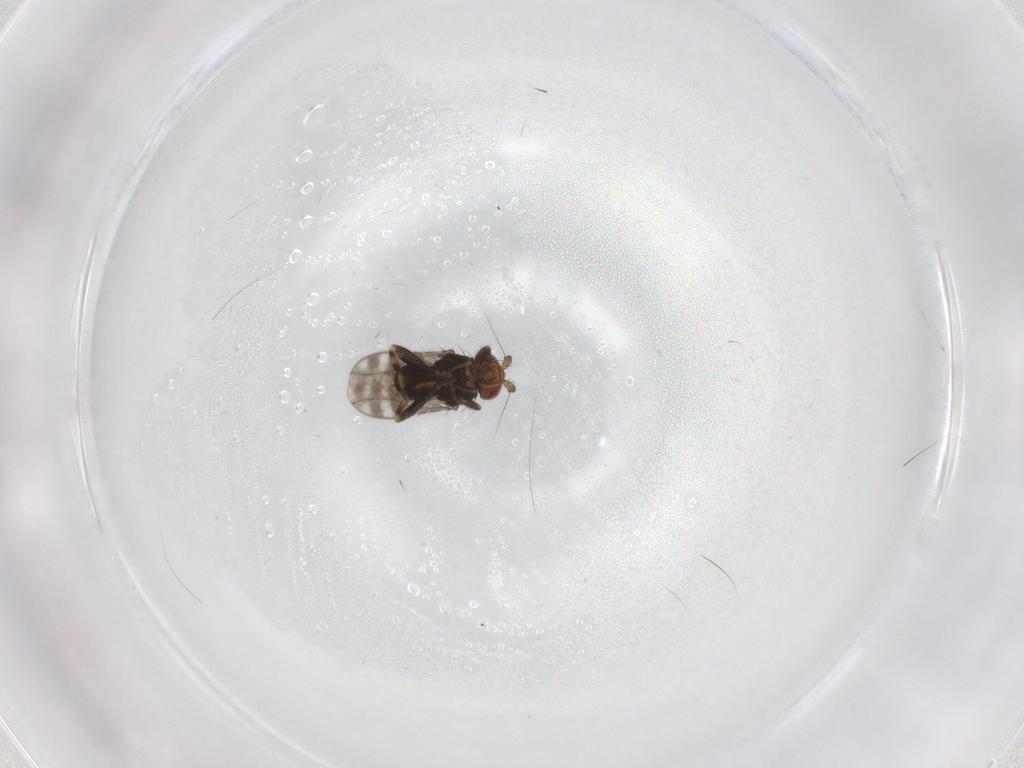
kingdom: Animalia
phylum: Arthropoda
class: Insecta
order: Diptera
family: Sphaeroceridae
